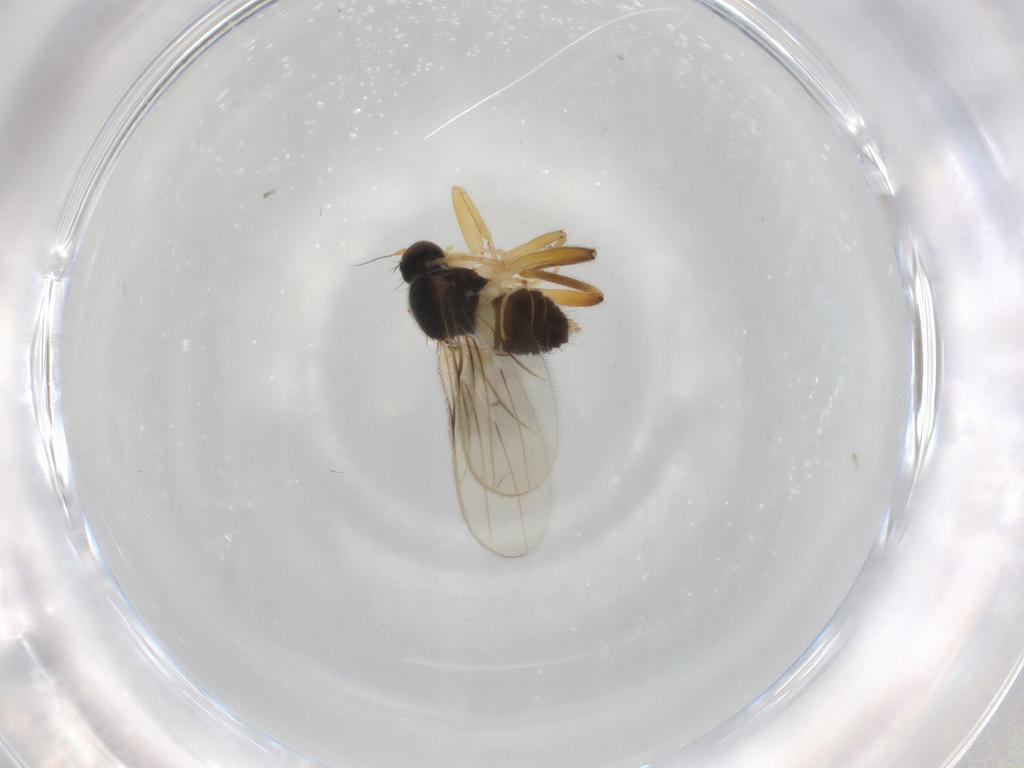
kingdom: Animalia
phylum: Arthropoda
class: Insecta
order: Diptera
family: Hybotidae
